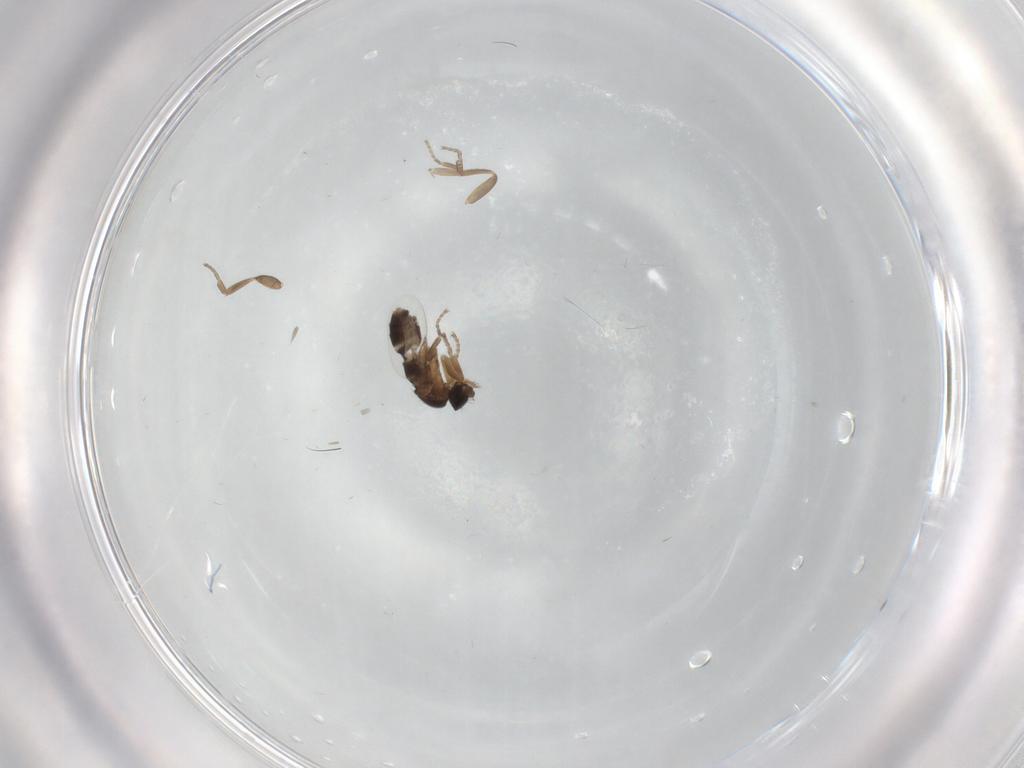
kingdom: Animalia
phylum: Arthropoda
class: Insecta
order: Diptera
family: Phoridae
